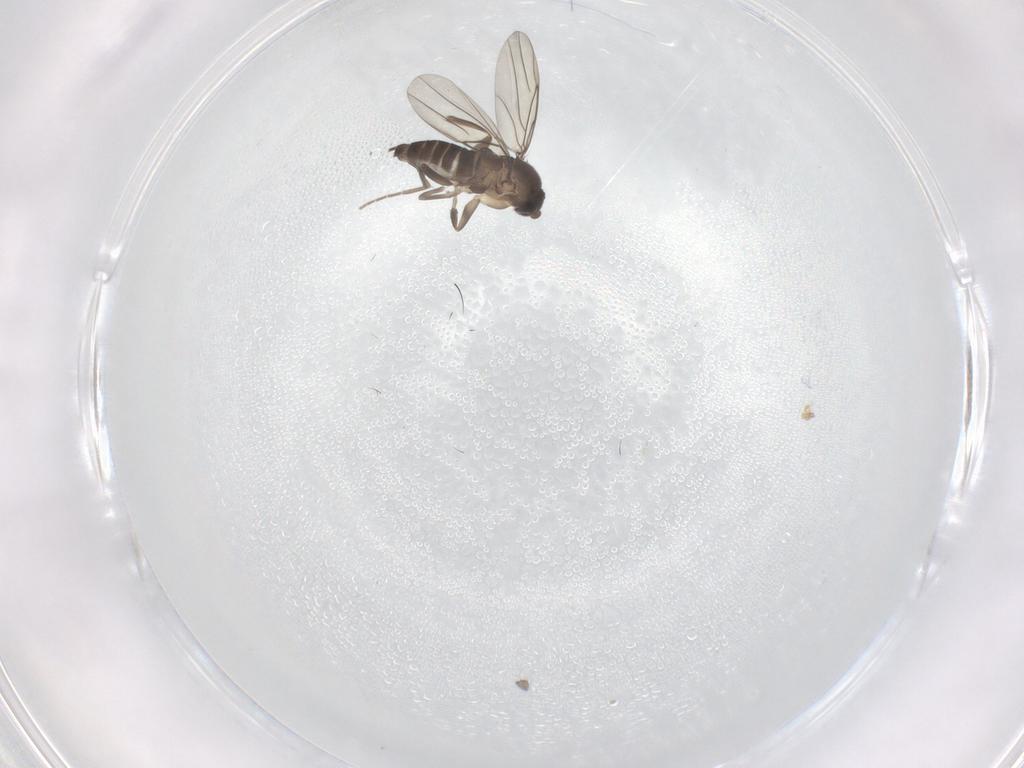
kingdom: Animalia
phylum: Arthropoda
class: Insecta
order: Diptera
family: Phoridae
